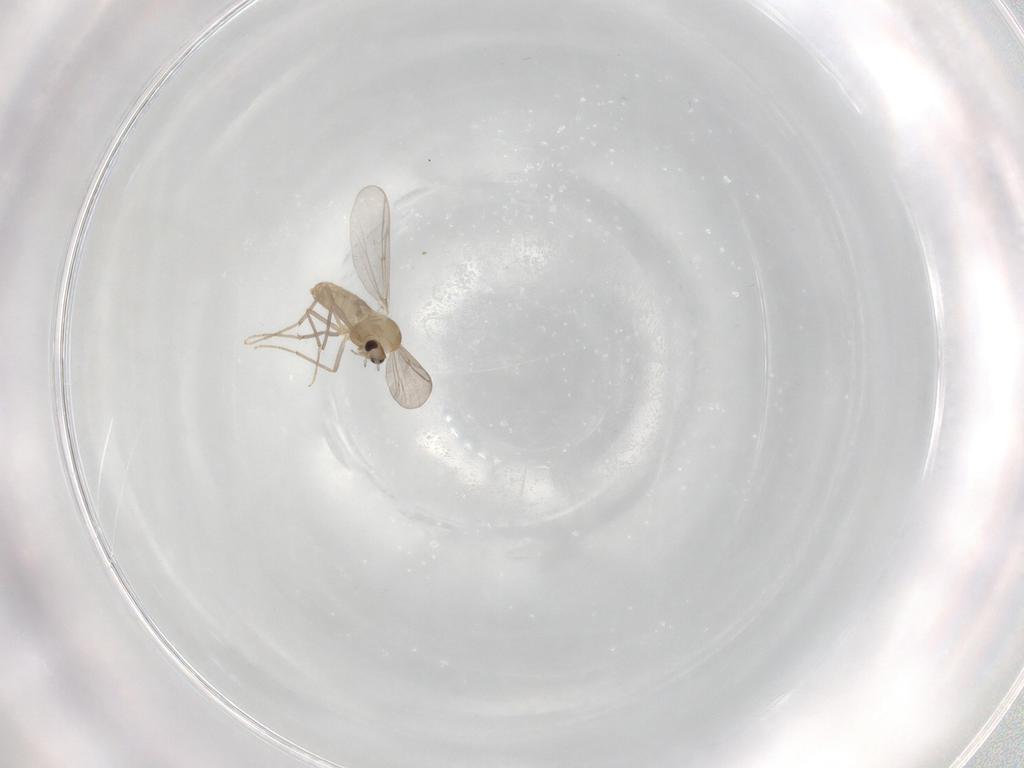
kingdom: Animalia
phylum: Arthropoda
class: Insecta
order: Diptera
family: Chironomidae
